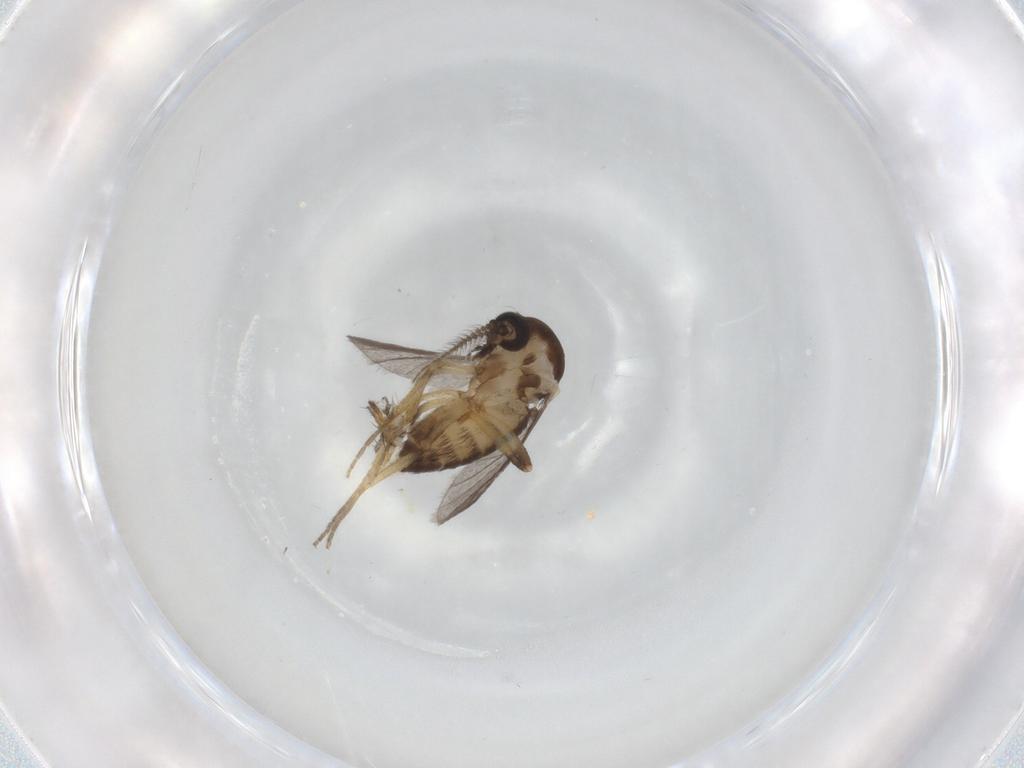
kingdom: Animalia
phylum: Arthropoda
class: Insecta
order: Diptera
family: Ceratopogonidae
